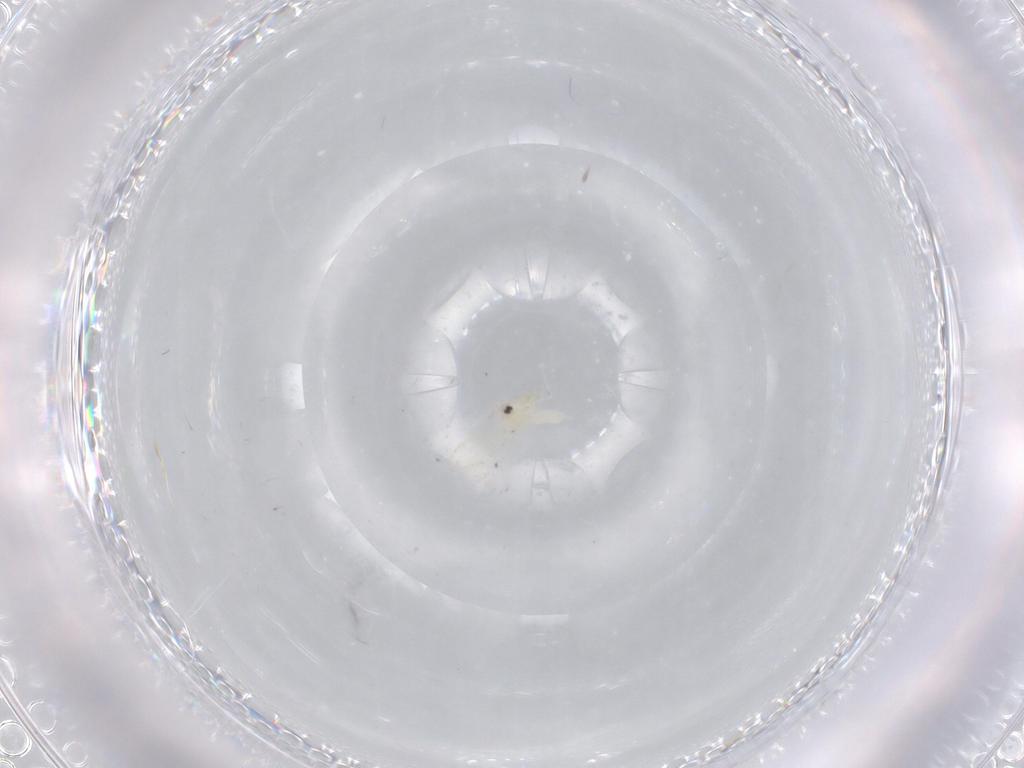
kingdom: Animalia
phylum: Arthropoda
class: Insecta
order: Hemiptera
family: Aleyrodidae
